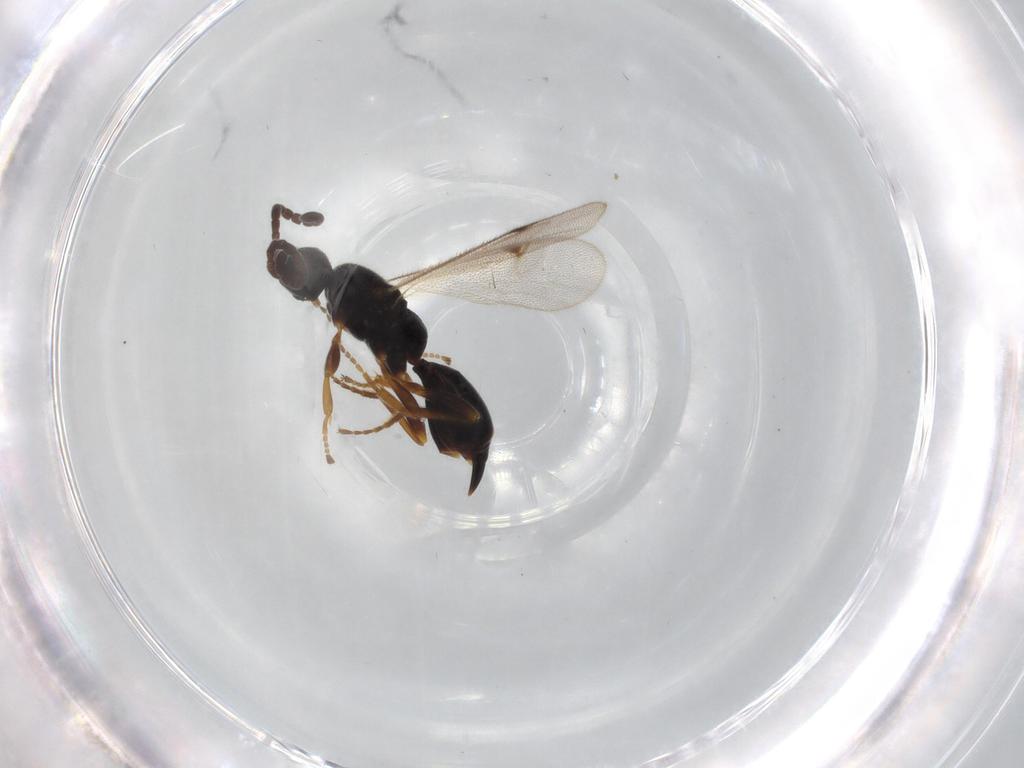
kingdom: Animalia
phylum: Arthropoda
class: Insecta
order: Hymenoptera
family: Proctotrupidae
